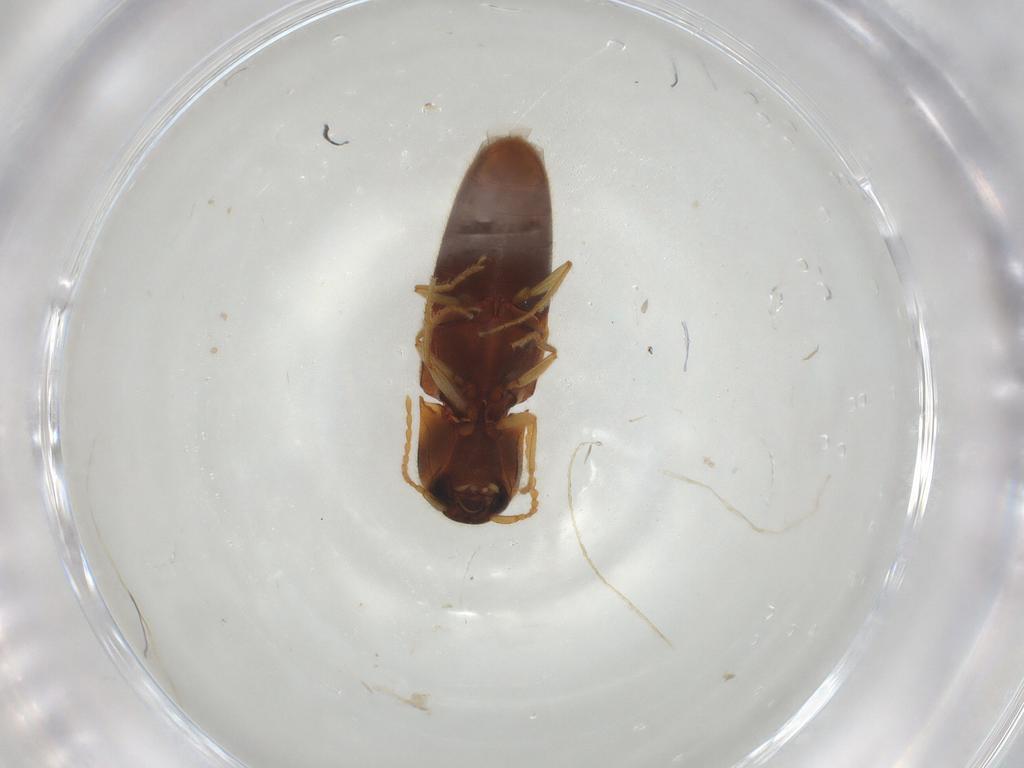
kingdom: Animalia
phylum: Arthropoda
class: Insecta
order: Coleoptera
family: Elateridae
